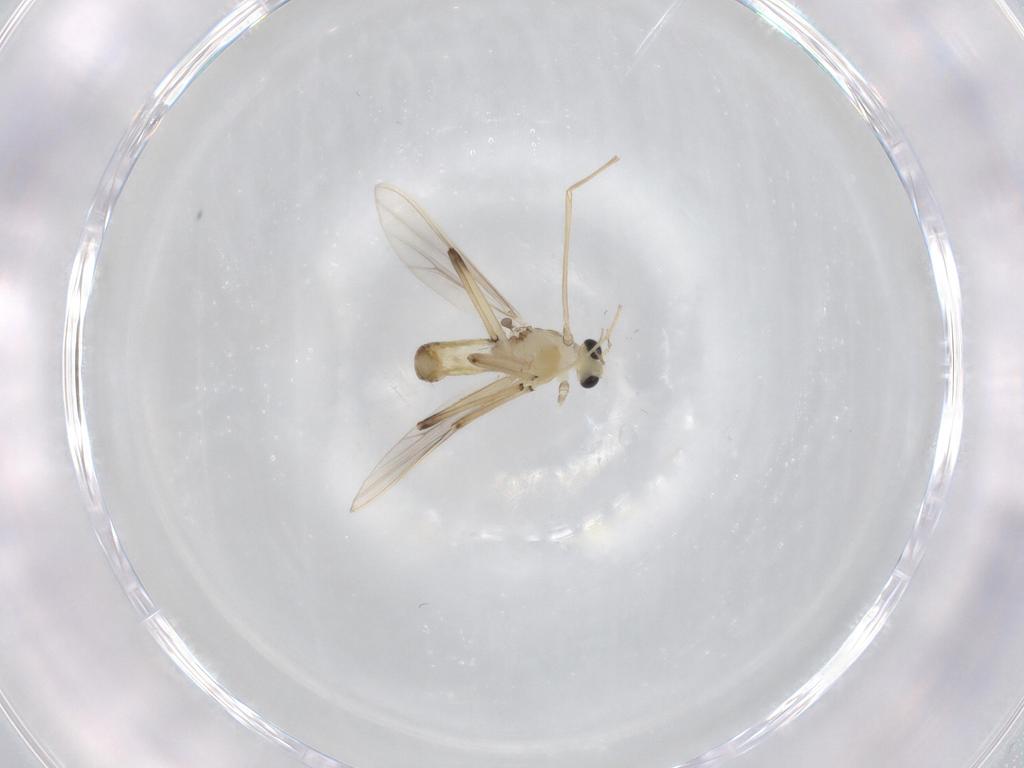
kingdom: Animalia
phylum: Arthropoda
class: Insecta
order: Diptera
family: Chironomidae
